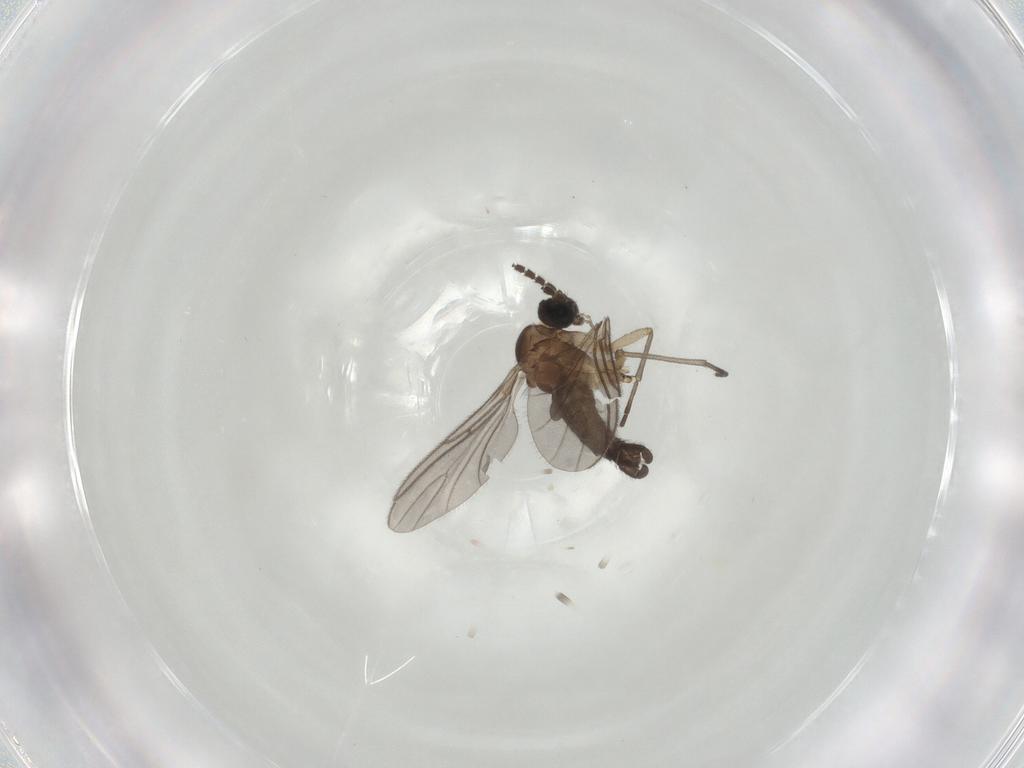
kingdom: Animalia
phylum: Arthropoda
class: Insecta
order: Diptera
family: Sciaridae
